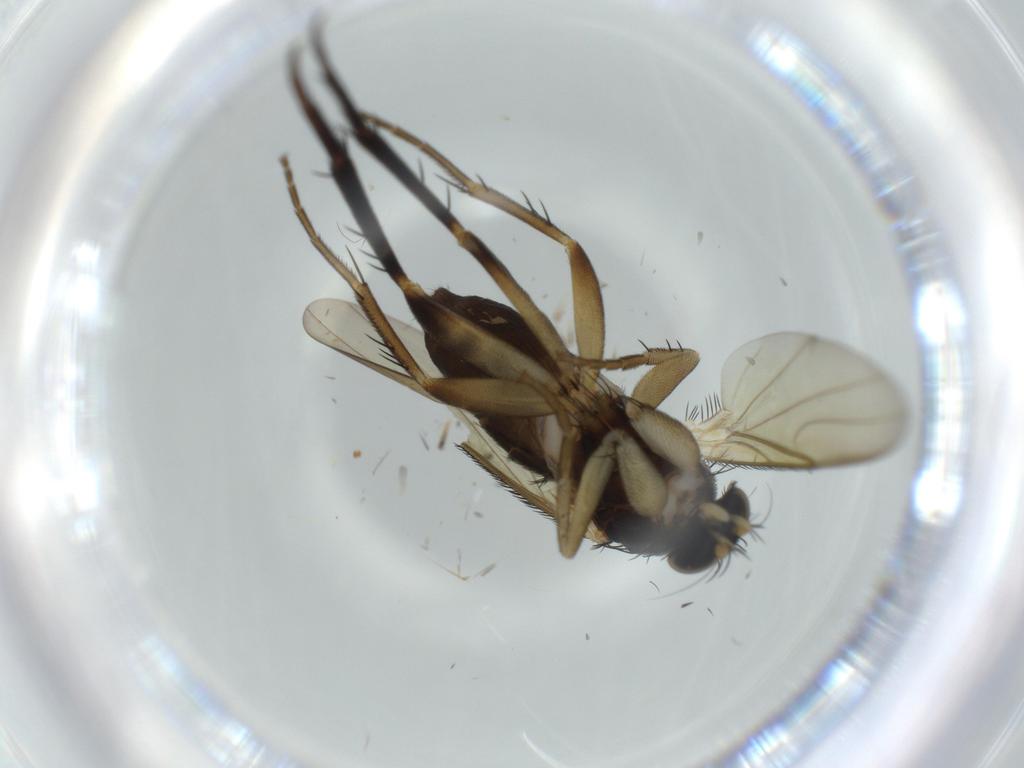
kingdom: Animalia
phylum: Arthropoda
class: Insecta
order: Diptera
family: Phoridae
